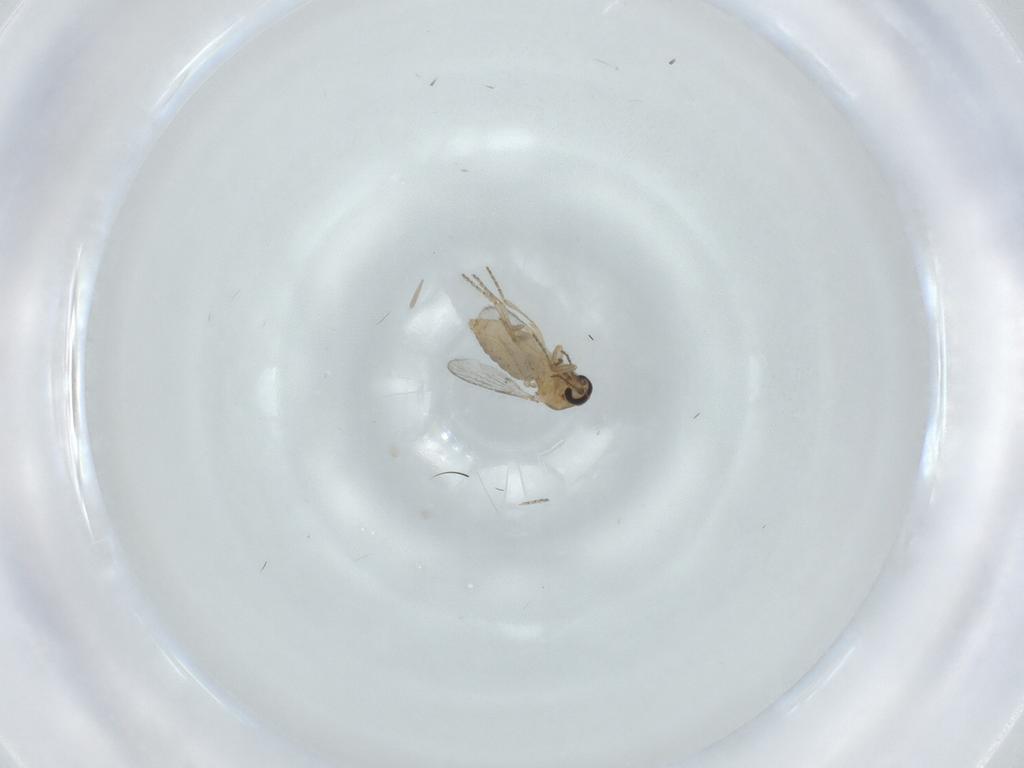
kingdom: Animalia
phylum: Arthropoda
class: Insecta
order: Diptera
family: Ceratopogonidae
